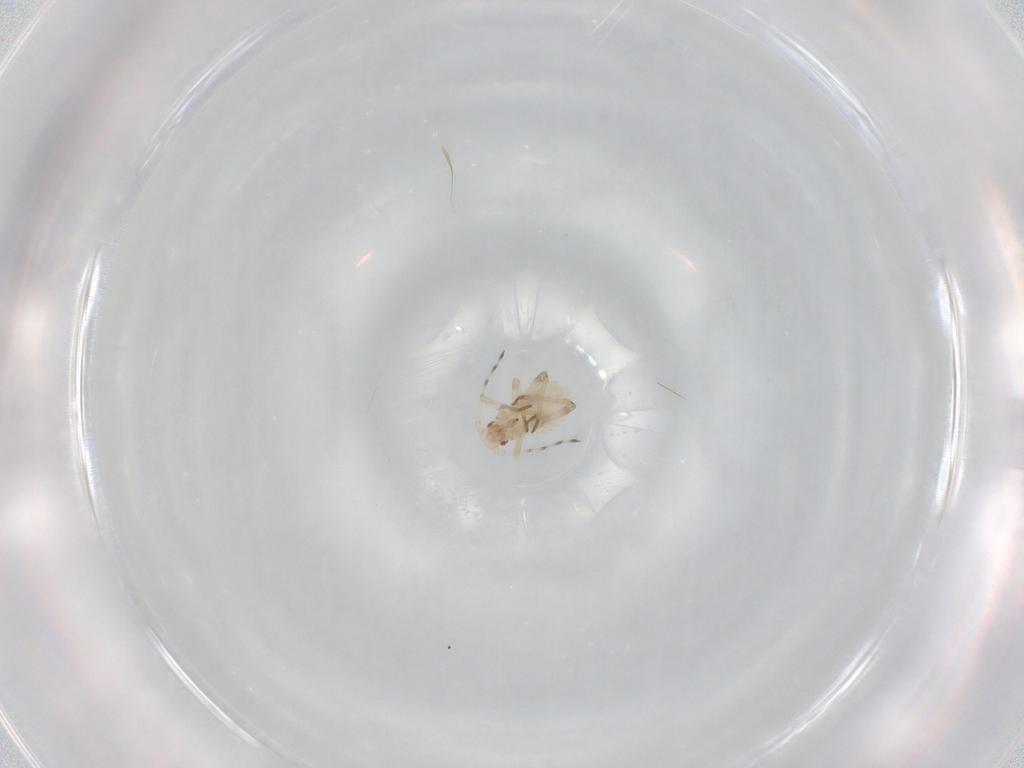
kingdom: Animalia
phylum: Arthropoda
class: Insecta
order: Hemiptera
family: Aphididae
